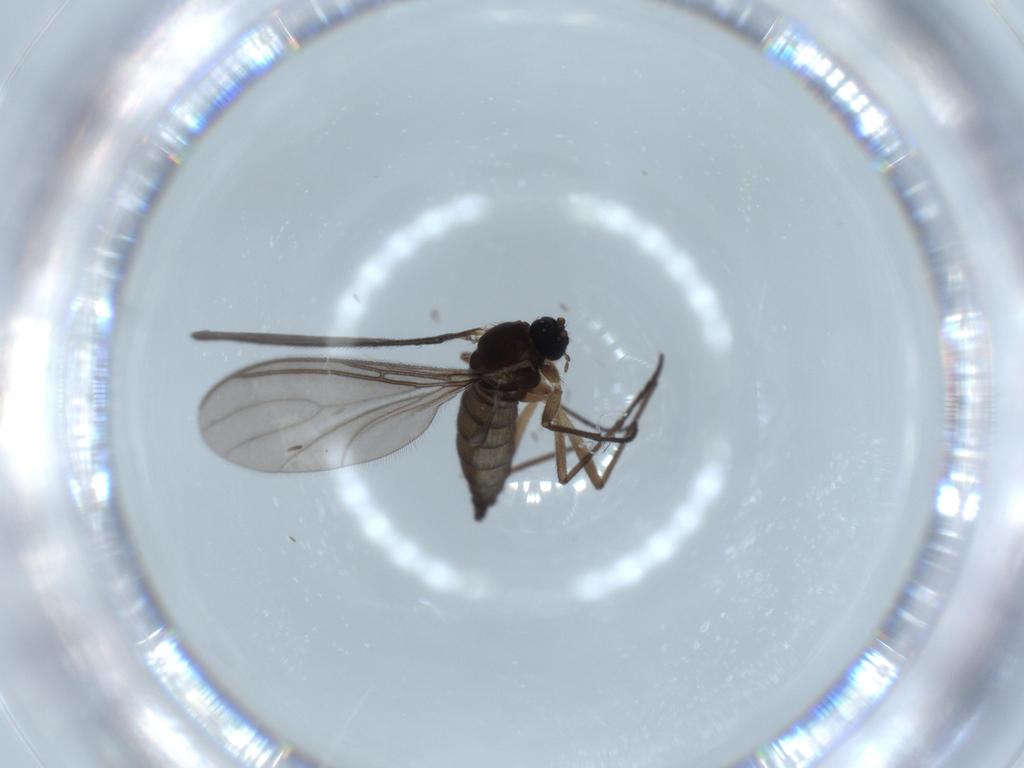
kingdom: Animalia
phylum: Arthropoda
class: Insecta
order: Diptera
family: Sciaridae
